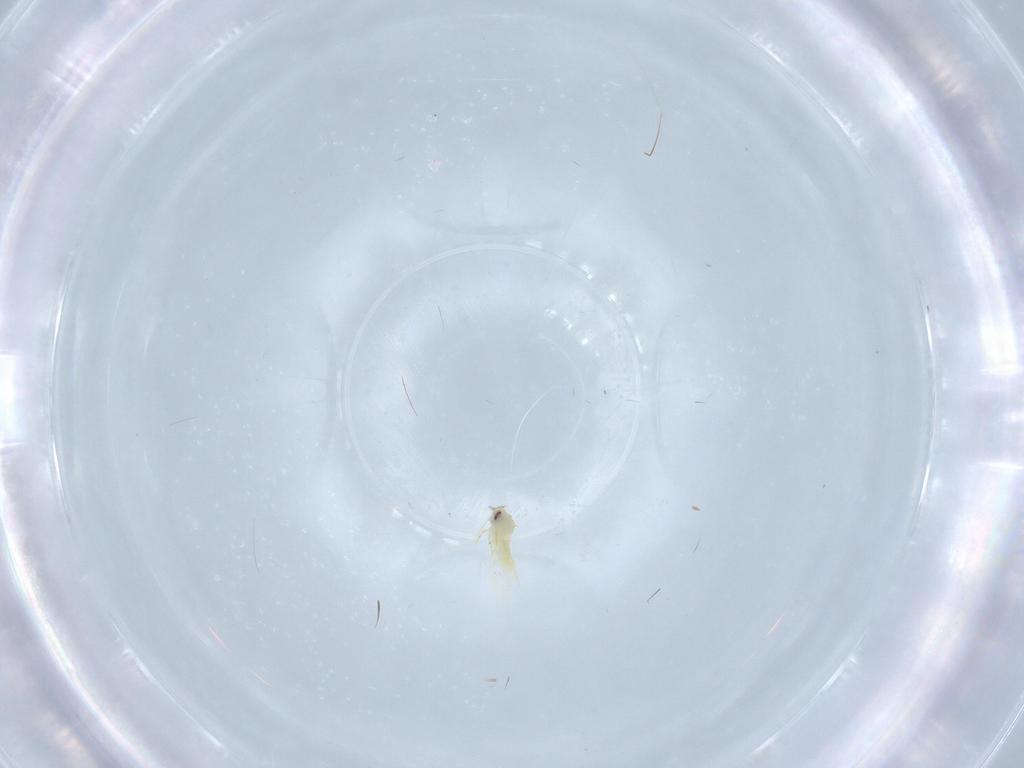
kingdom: Animalia
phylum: Arthropoda
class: Insecta
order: Hemiptera
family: Aleyrodidae
